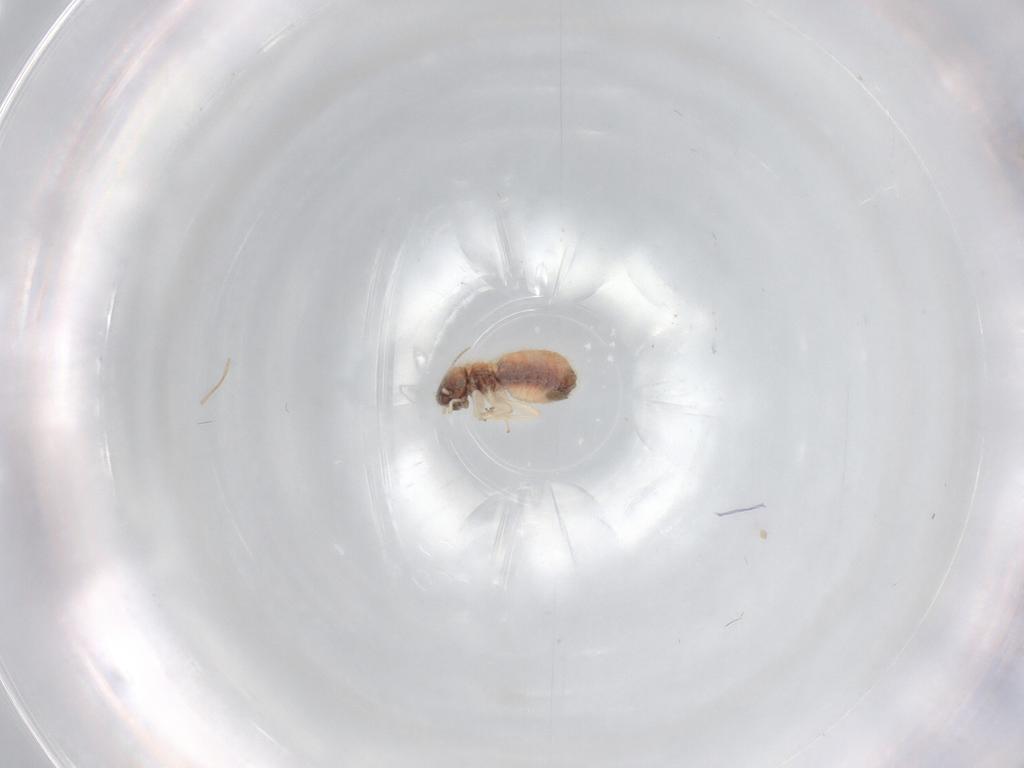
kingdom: Animalia
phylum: Arthropoda
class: Insecta
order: Psocodea
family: Archipsocidae
